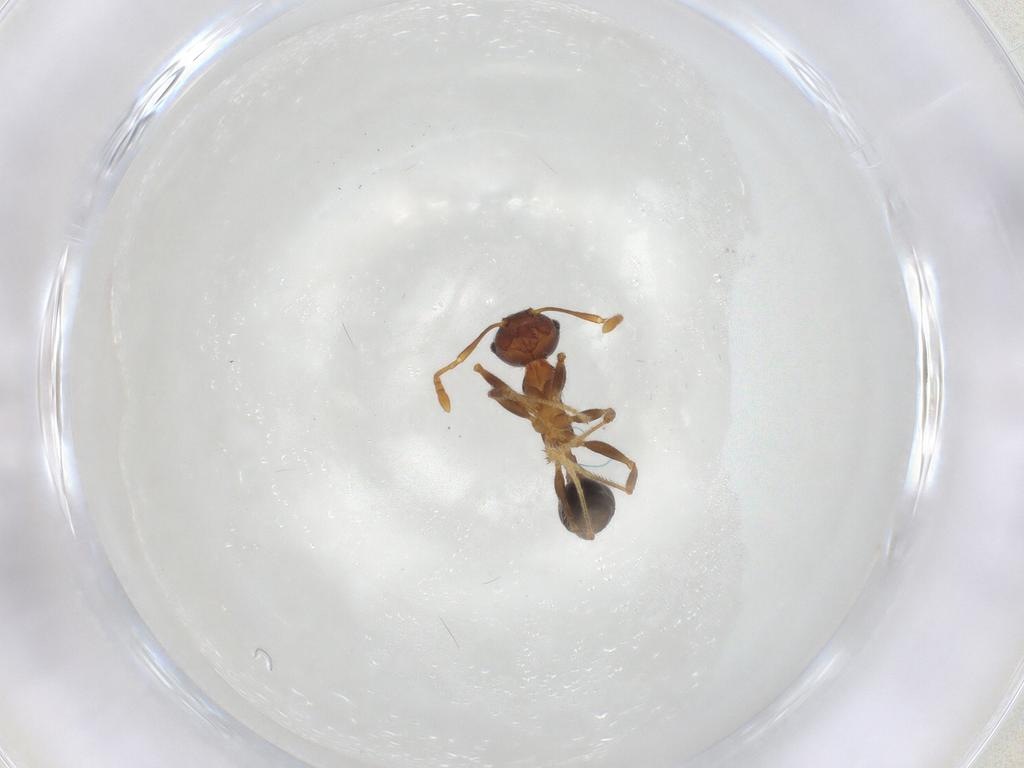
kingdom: Animalia
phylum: Arthropoda
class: Insecta
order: Hymenoptera
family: Formicidae
